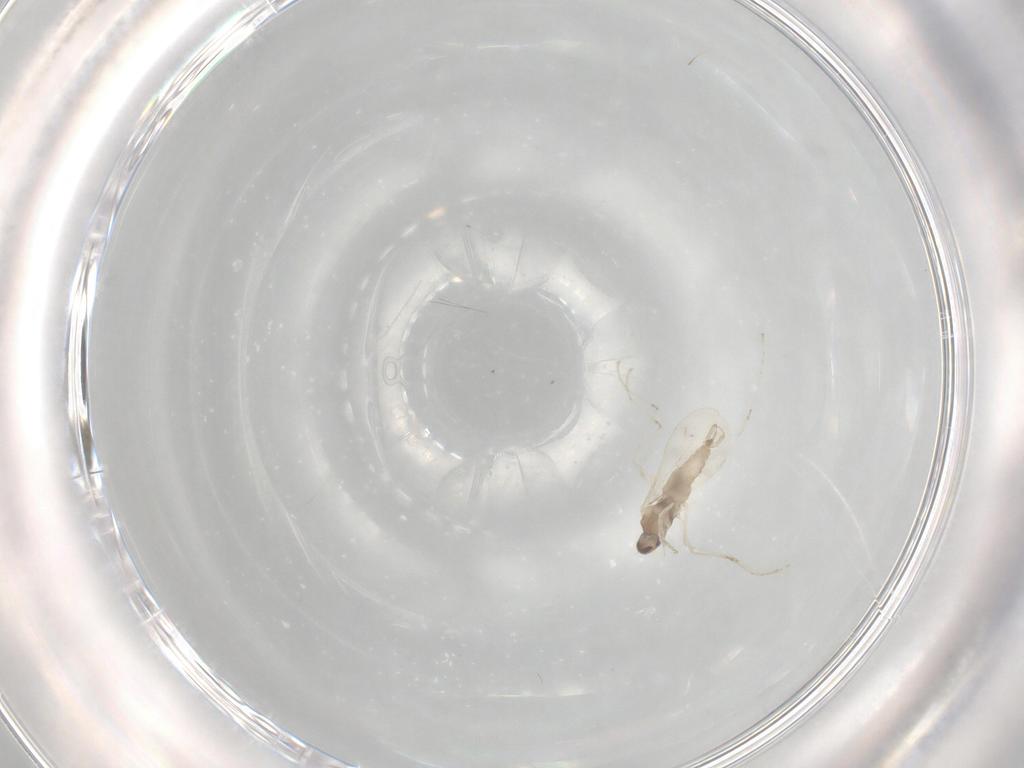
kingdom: Animalia
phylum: Arthropoda
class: Insecta
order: Diptera
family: Cecidomyiidae
